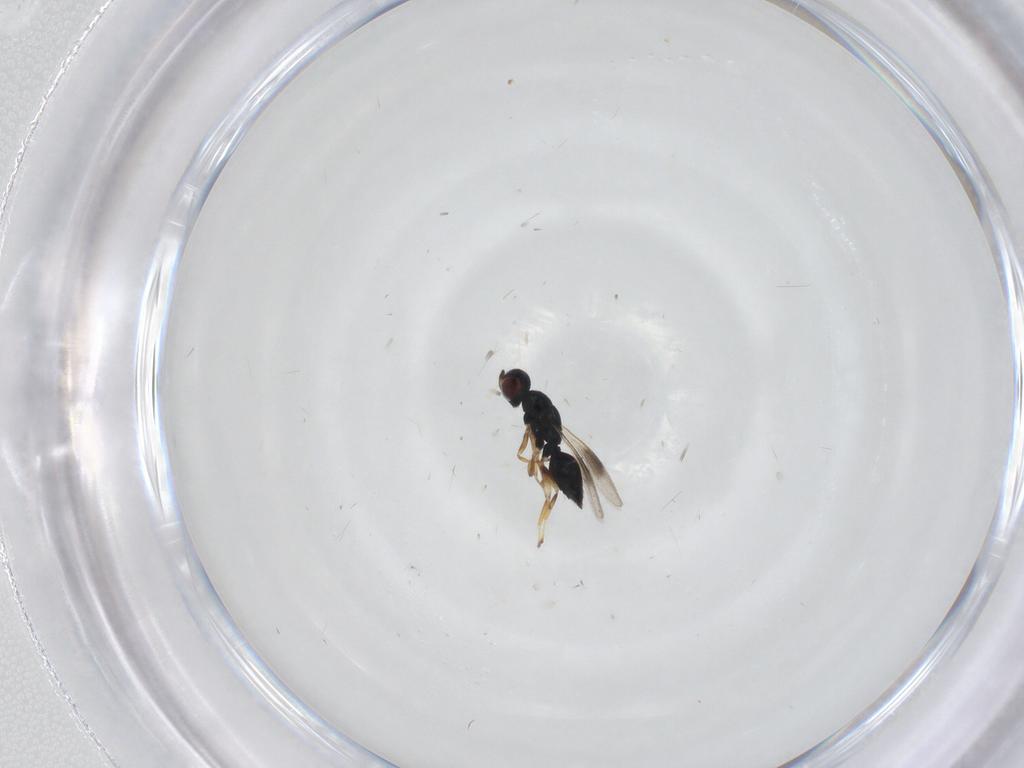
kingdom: Animalia
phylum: Arthropoda
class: Insecta
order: Hymenoptera
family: Eulophidae
